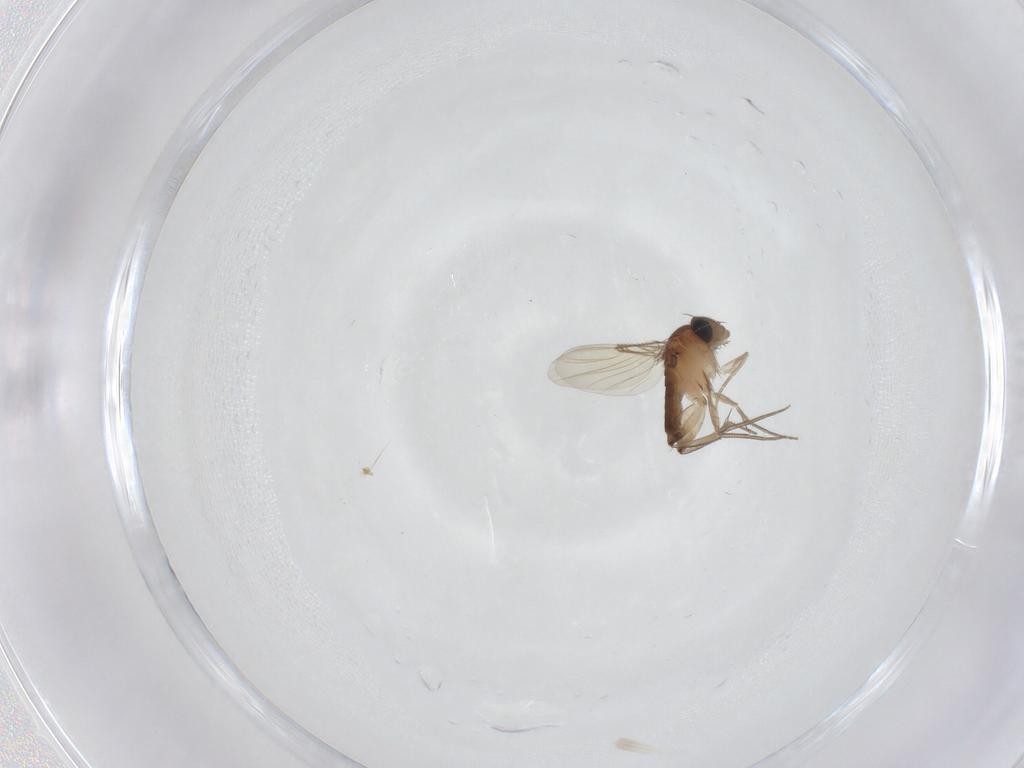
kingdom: Animalia
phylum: Arthropoda
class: Insecta
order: Diptera
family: Phoridae
